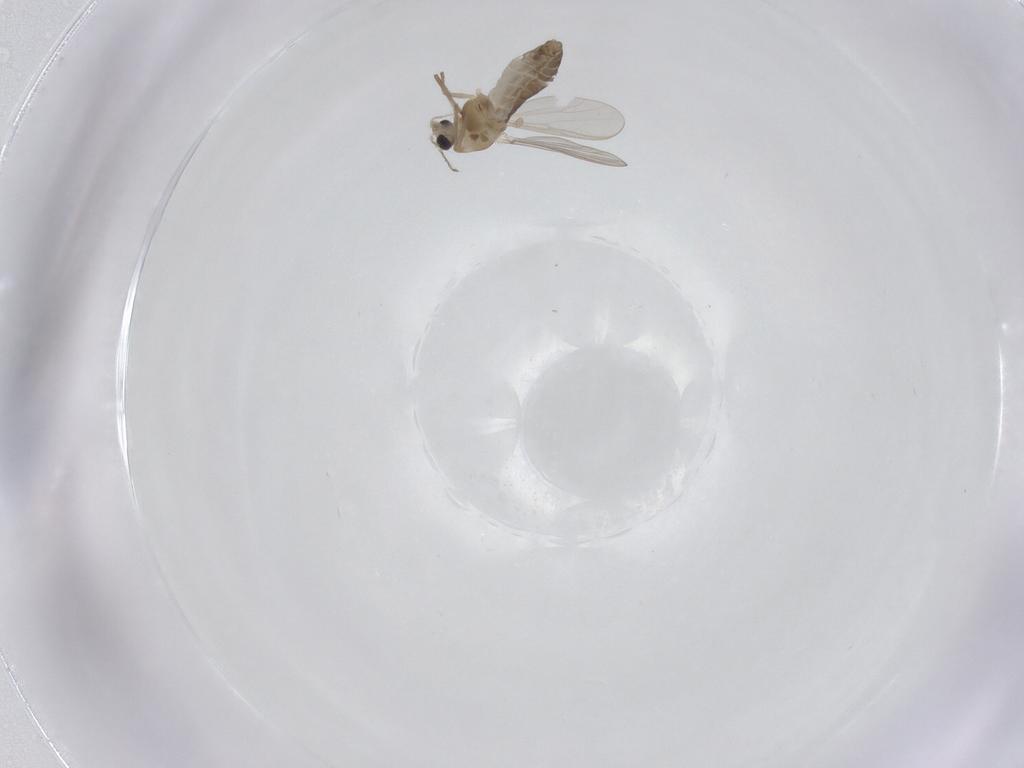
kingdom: Animalia
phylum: Arthropoda
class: Insecta
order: Diptera
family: Chironomidae
